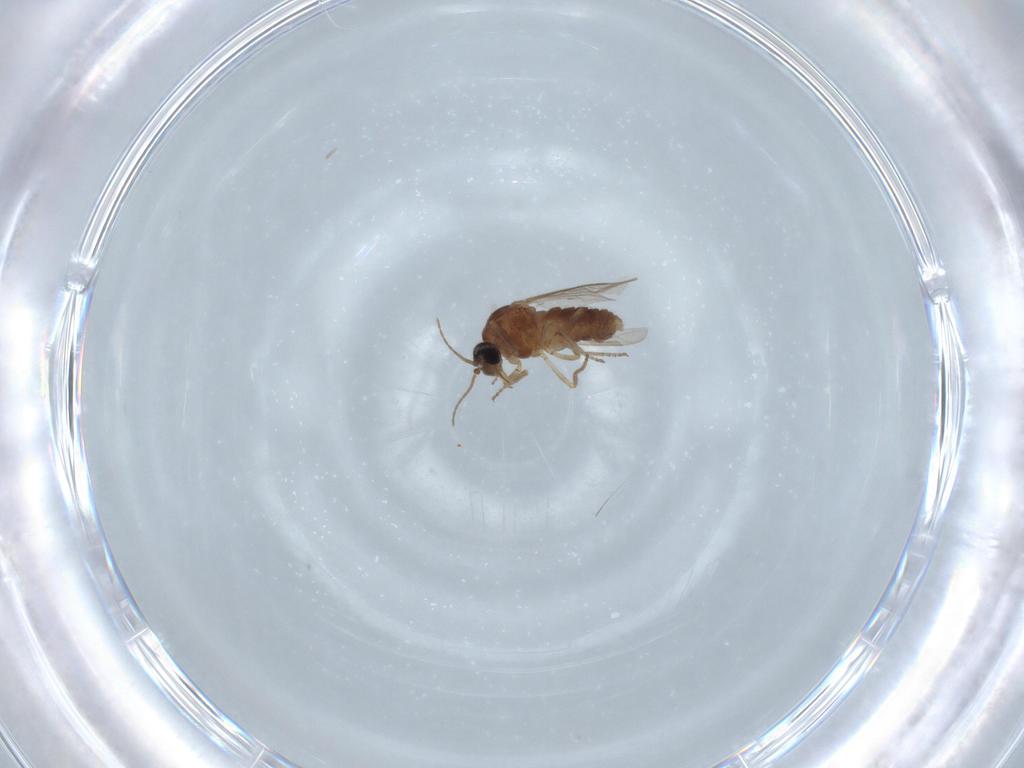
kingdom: Animalia
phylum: Arthropoda
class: Insecta
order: Diptera
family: Ceratopogonidae
